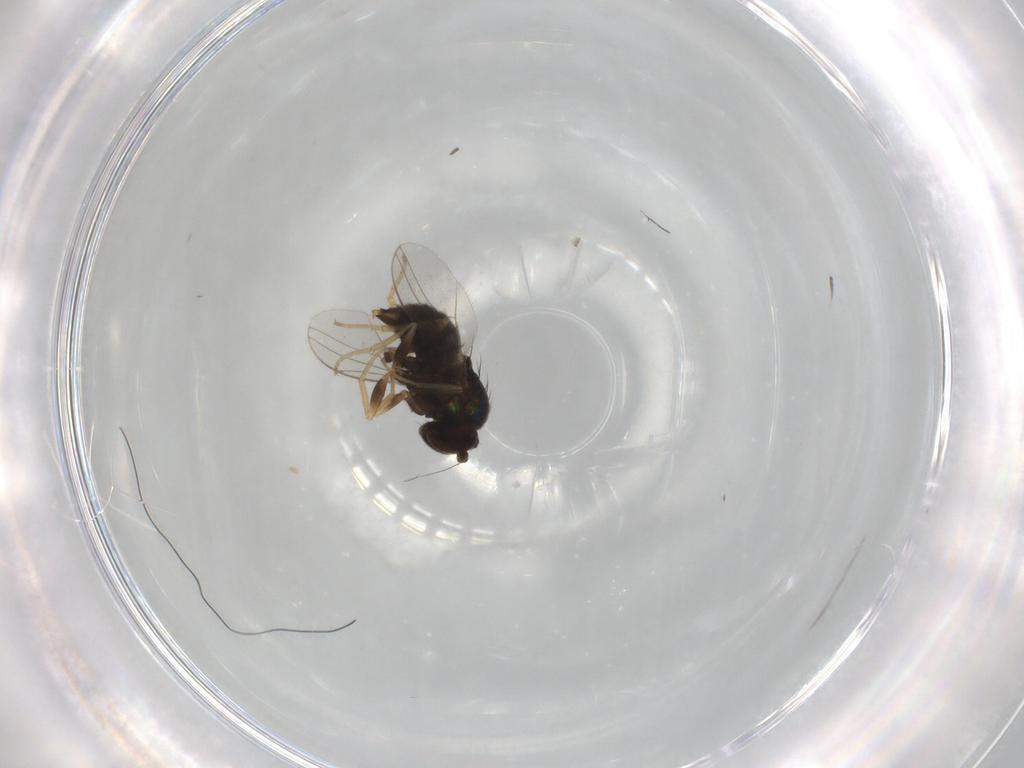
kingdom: Animalia
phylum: Arthropoda
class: Insecta
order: Diptera
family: Dolichopodidae
